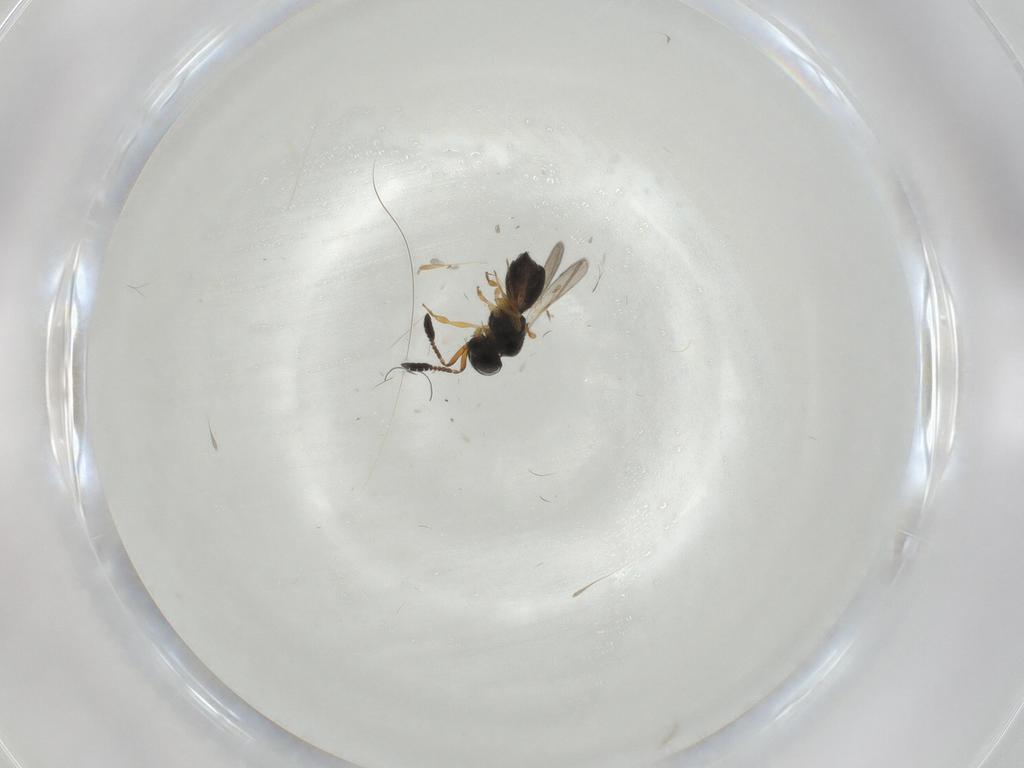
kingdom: Animalia
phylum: Arthropoda
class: Insecta
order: Hymenoptera
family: Scelionidae
